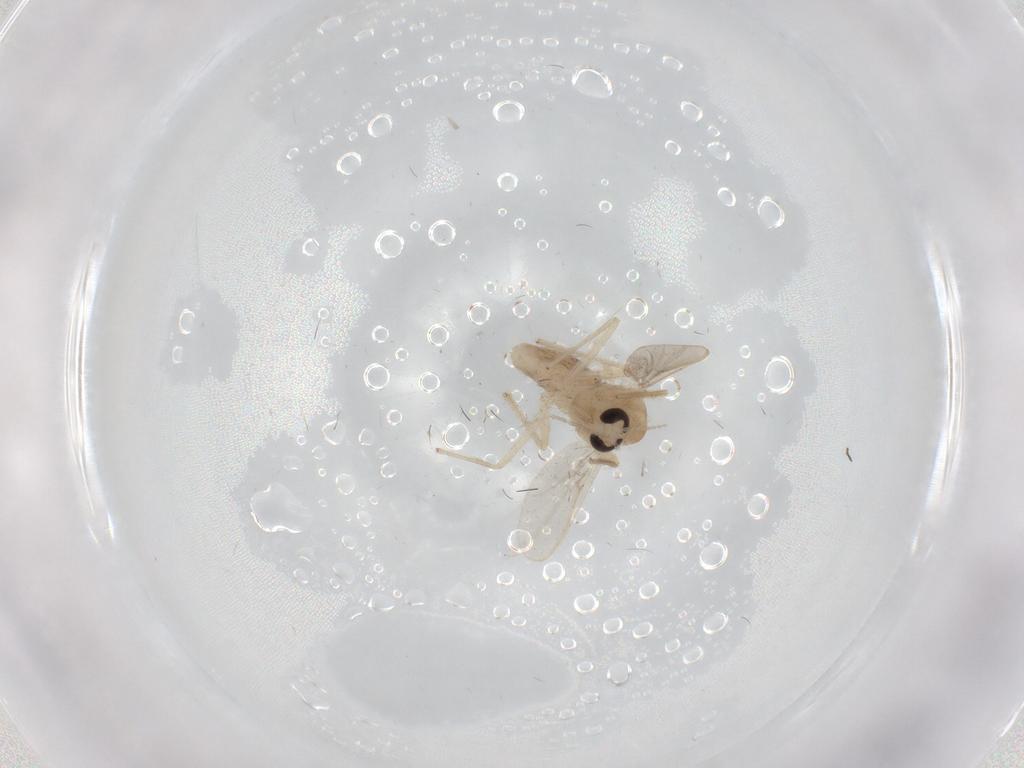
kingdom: Animalia
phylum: Arthropoda
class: Insecta
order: Diptera
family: Chironomidae
